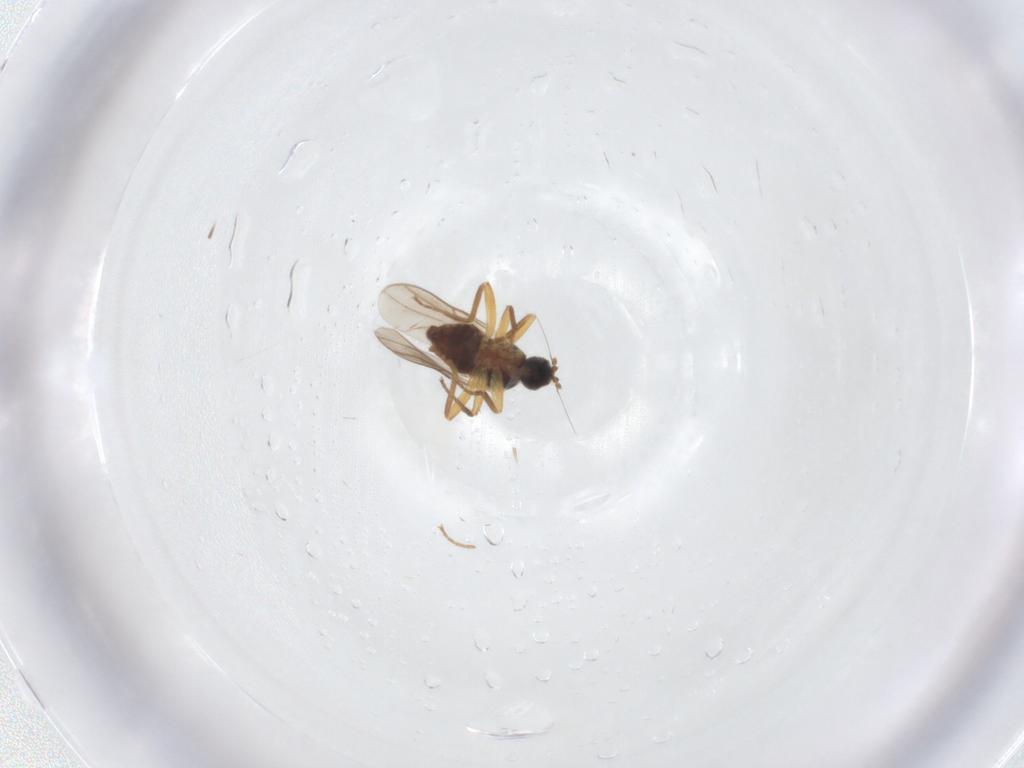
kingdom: Animalia
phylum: Arthropoda
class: Insecta
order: Diptera
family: Hybotidae
